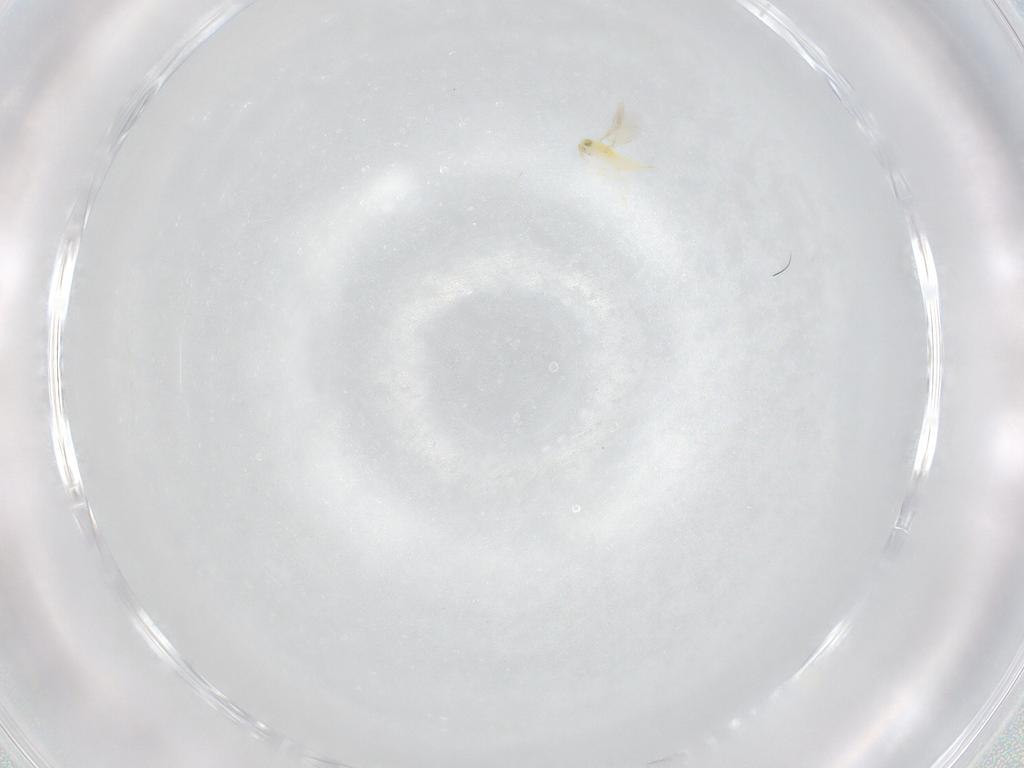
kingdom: Animalia
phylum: Arthropoda
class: Insecta
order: Hymenoptera
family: Aphelinidae
